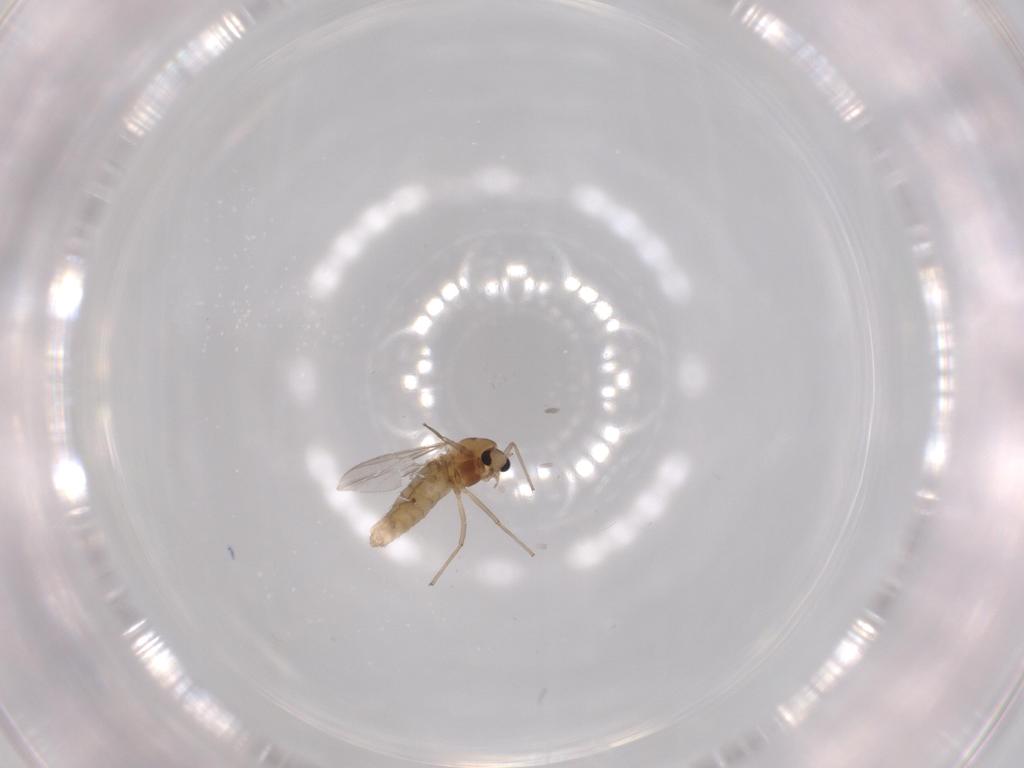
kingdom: Animalia
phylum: Arthropoda
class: Insecta
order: Diptera
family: Chironomidae
